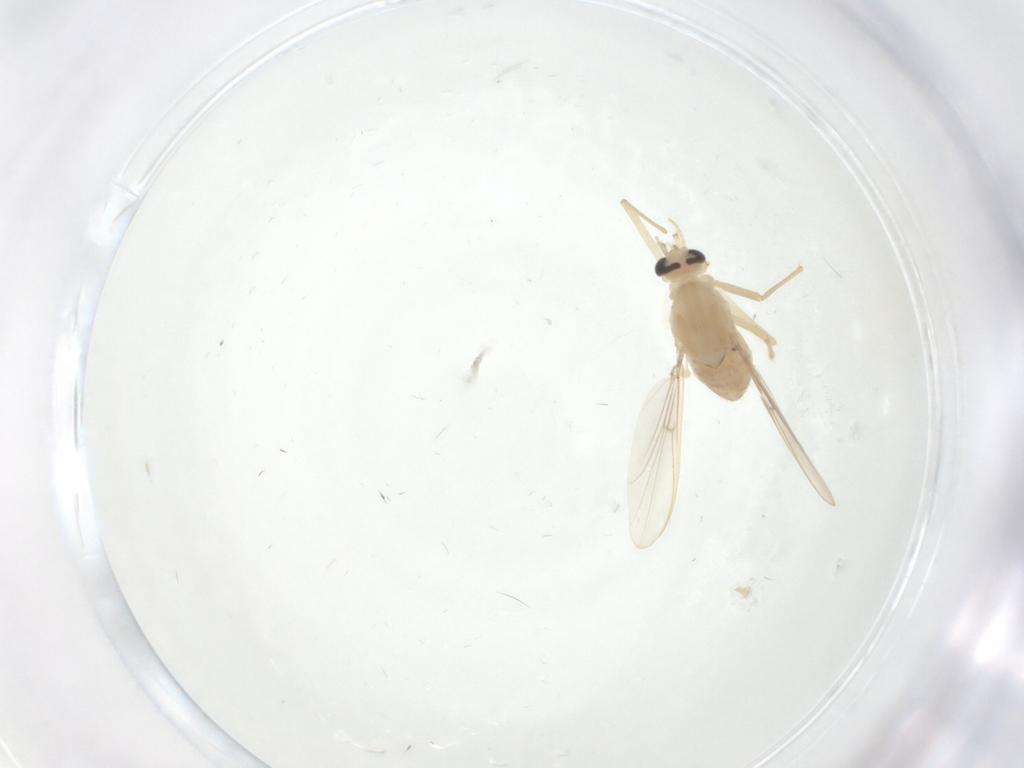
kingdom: Animalia
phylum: Arthropoda
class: Insecta
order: Diptera
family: Chironomidae
